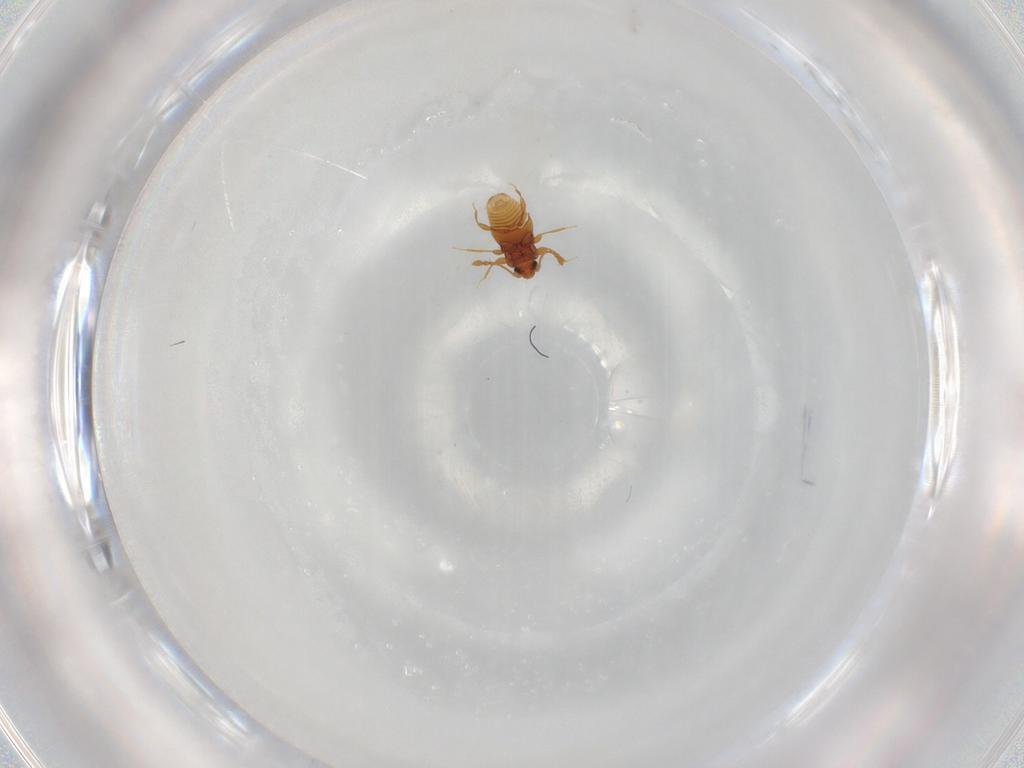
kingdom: Animalia
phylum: Arthropoda
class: Insecta
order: Coleoptera
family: Staphylinidae
